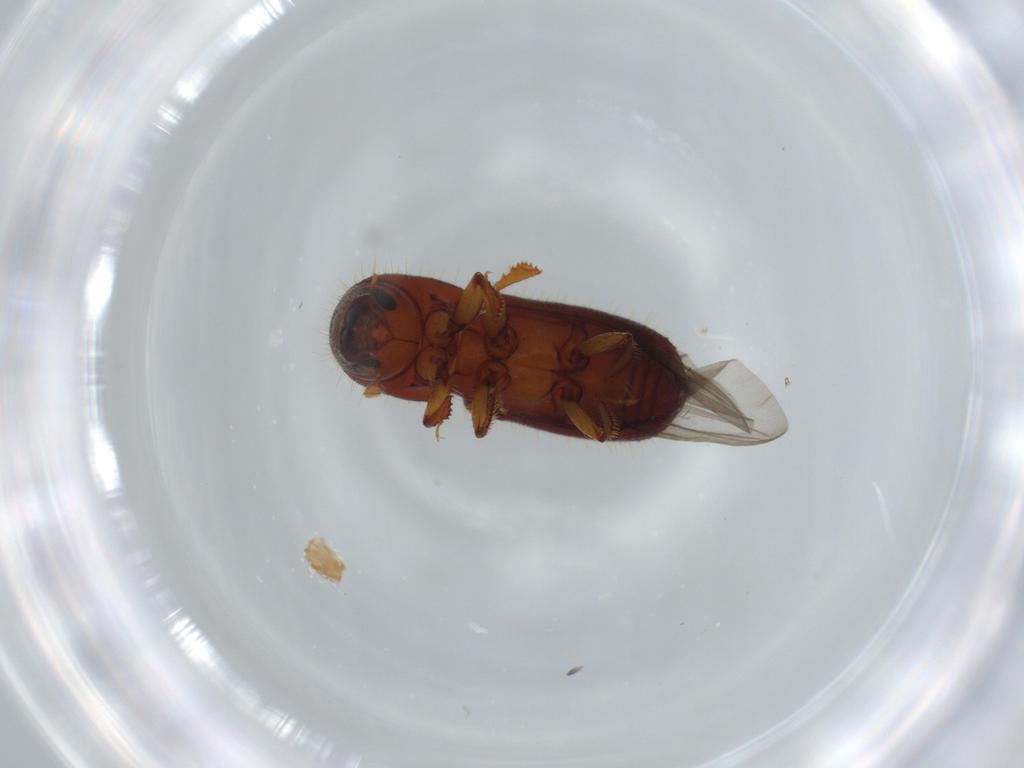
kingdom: Animalia
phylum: Arthropoda
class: Insecta
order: Coleoptera
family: Curculionidae
